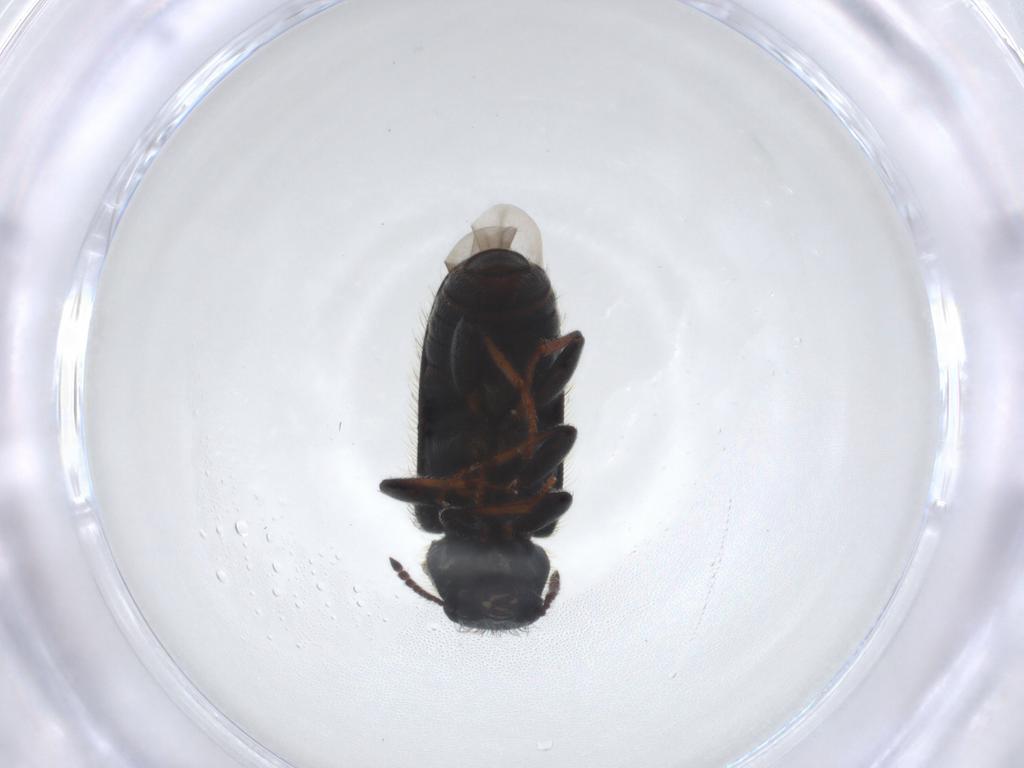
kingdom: Animalia
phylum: Arthropoda
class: Insecta
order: Coleoptera
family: Melyridae
